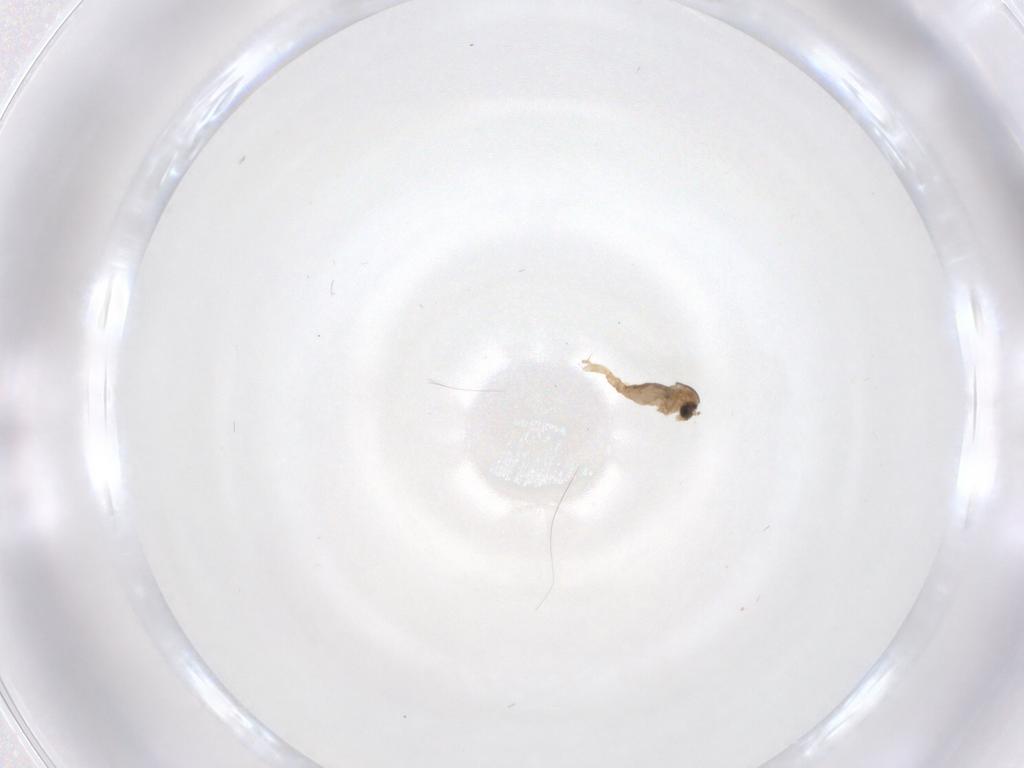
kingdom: Animalia
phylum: Arthropoda
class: Insecta
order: Diptera
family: Cecidomyiidae
